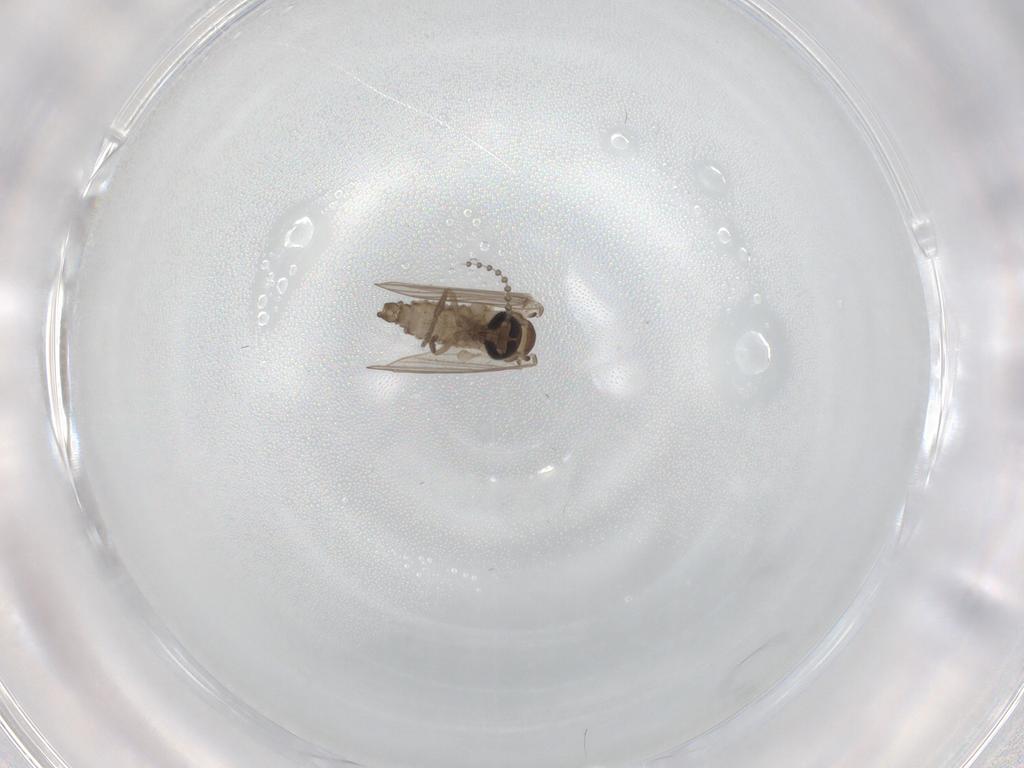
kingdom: Animalia
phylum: Arthropoda
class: Insecta
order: Diptera
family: Psychodidae
